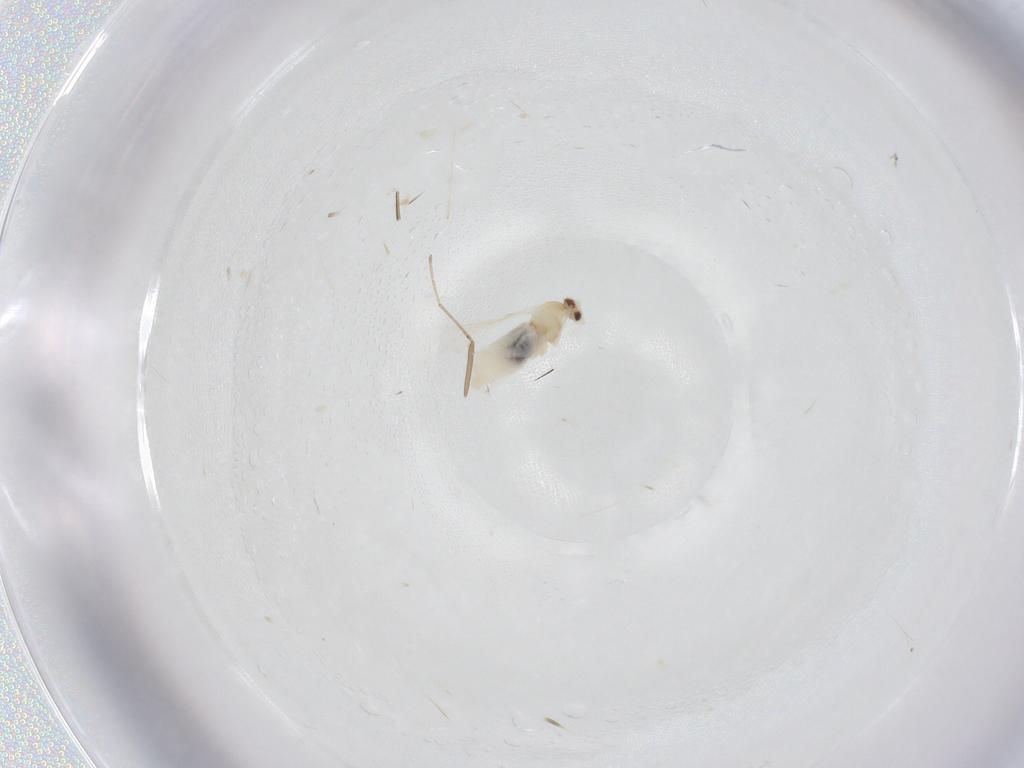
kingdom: Animalia
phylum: Arthropoda
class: Insecta
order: Diptera
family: Cecidomyiidae
